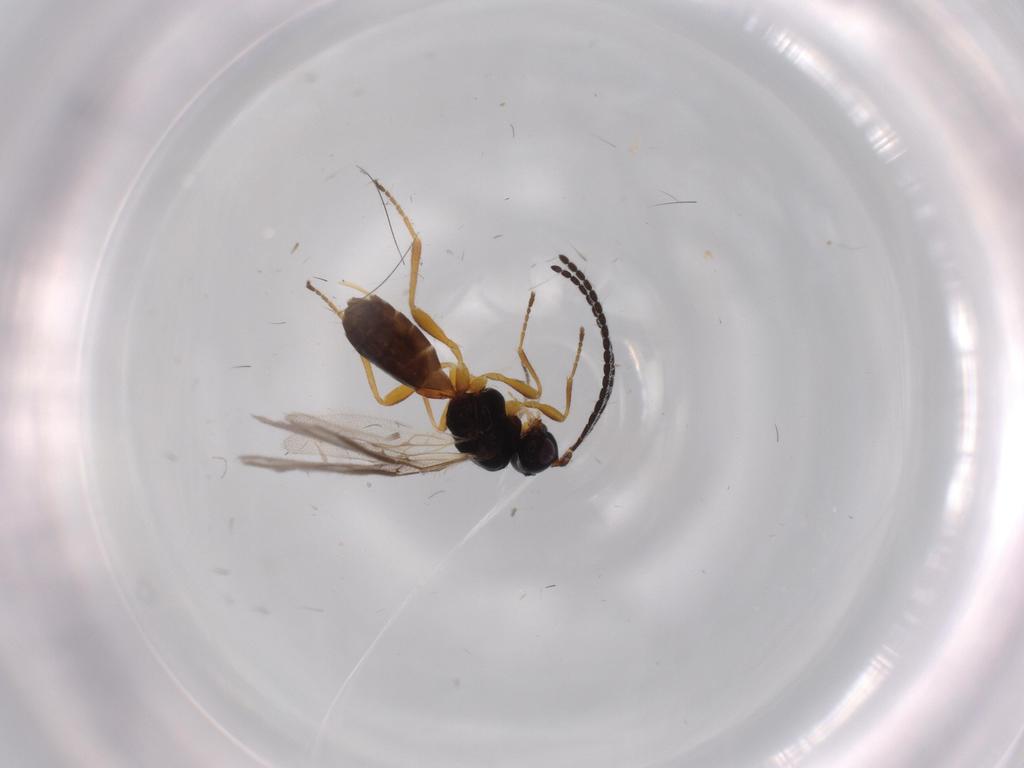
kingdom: Animalia
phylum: Arthropoda
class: Insecta
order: Hymenoptera
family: Braconidae
